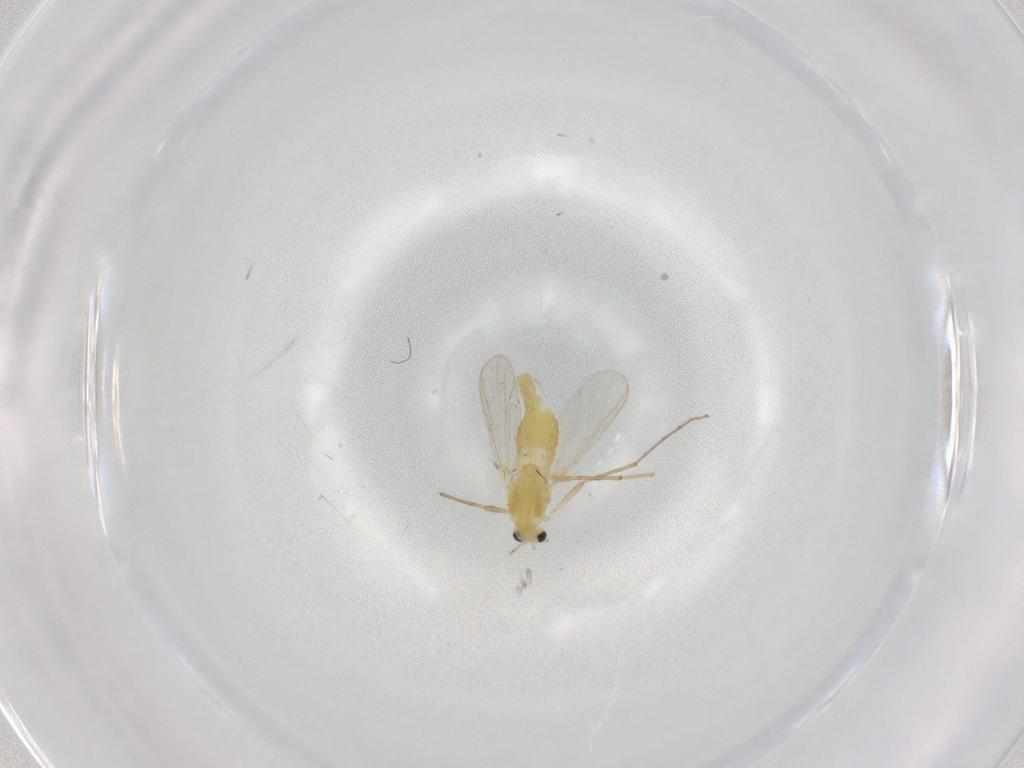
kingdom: Animalia
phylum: Arthropoda
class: Insecta
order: Diptera
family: Chironomidae
